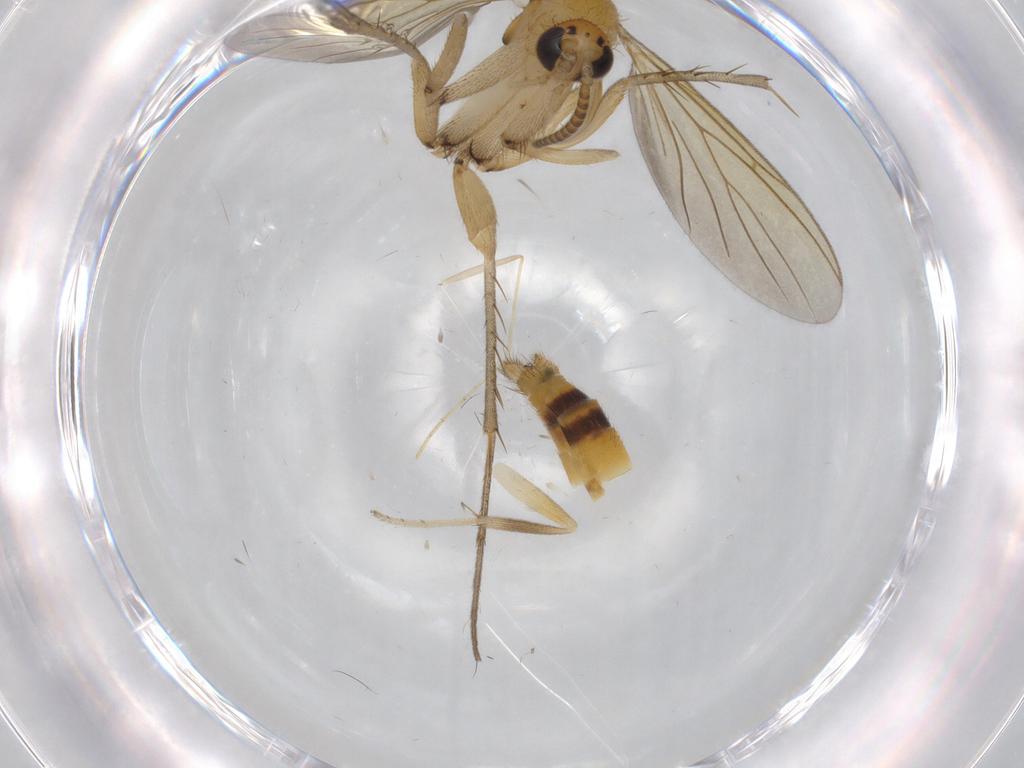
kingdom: Animalia
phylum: Arthropoda
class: Insecta
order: Diptera
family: Clusiidae
